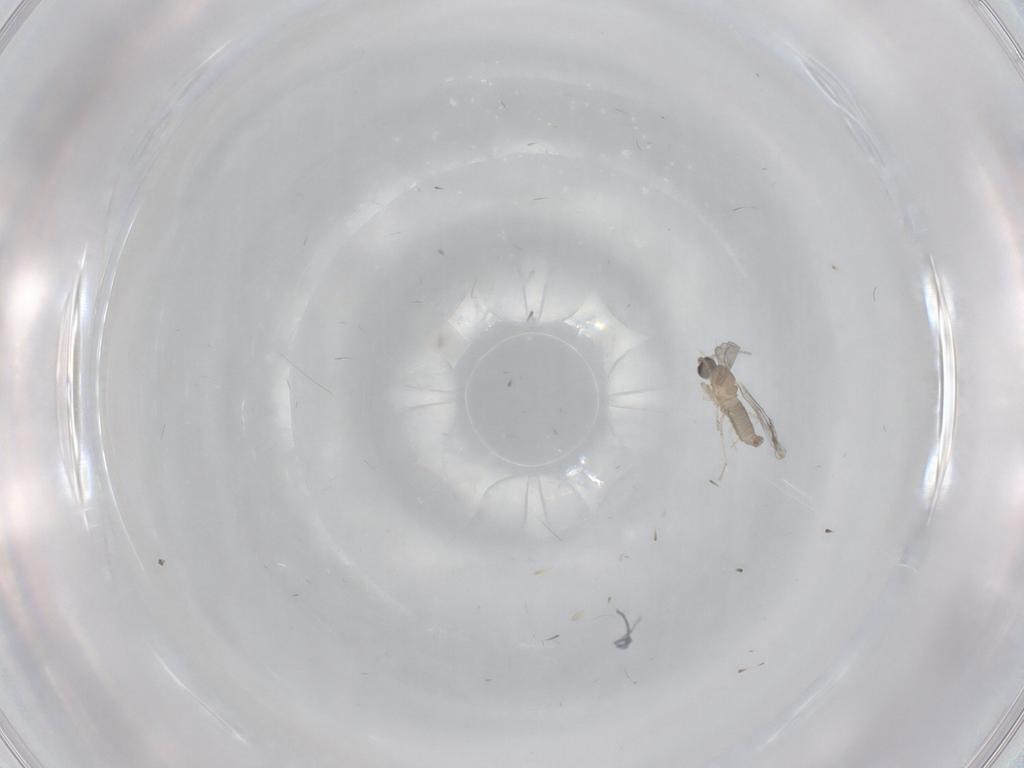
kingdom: Animalia
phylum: Arthropoda
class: Insecta
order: Diptera
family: Cecidomyiidae
